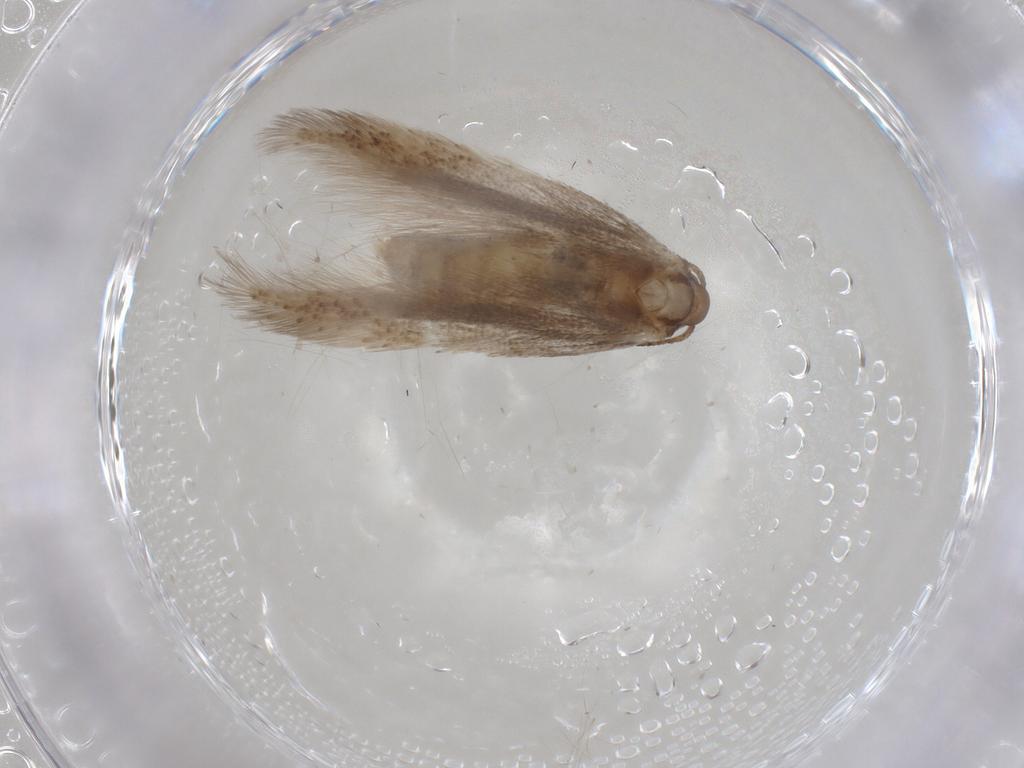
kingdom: Animalia
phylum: Arthropoda
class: Insecta
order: Lepidoptera
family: Gelechiidae
